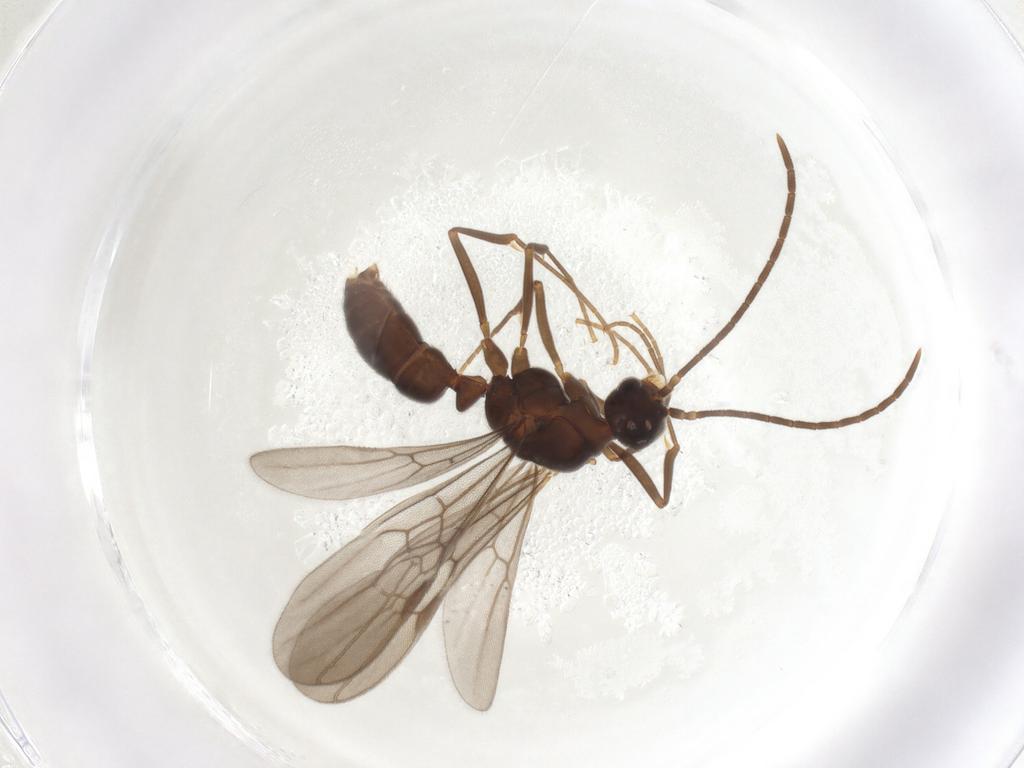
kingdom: Animalia
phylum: Arthropoda
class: Insecta
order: Hymenoptera
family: Formicidae
